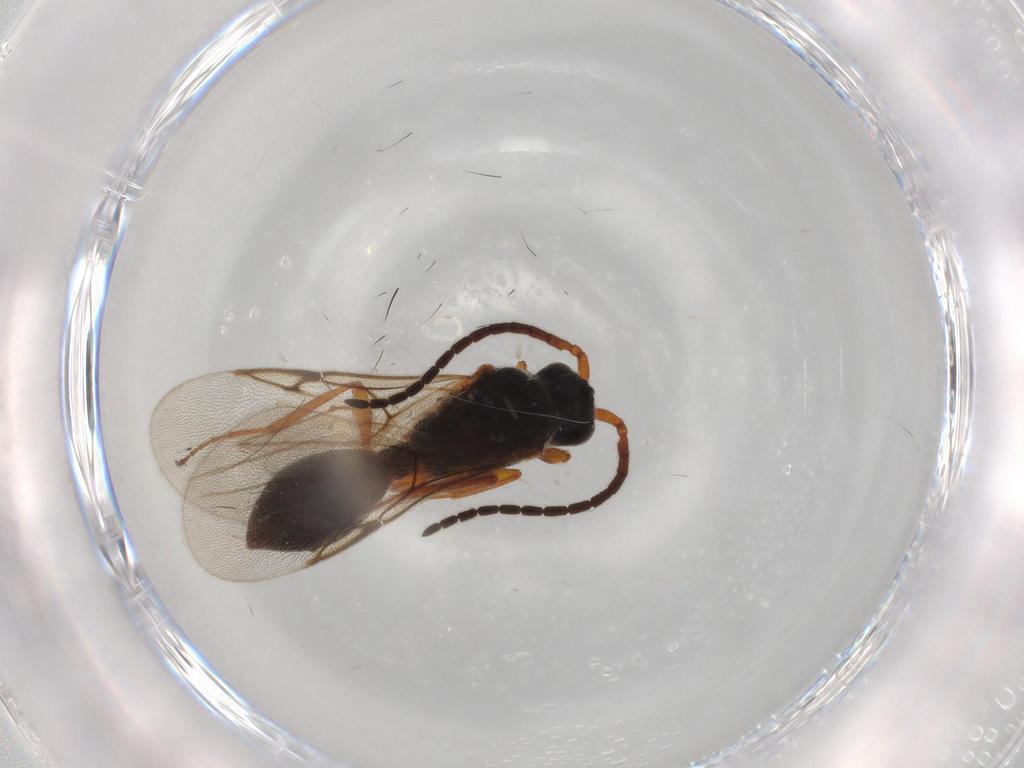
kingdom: Animalia
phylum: Arthropoda
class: Insecta
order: Hymenoptera
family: Diapriidae
